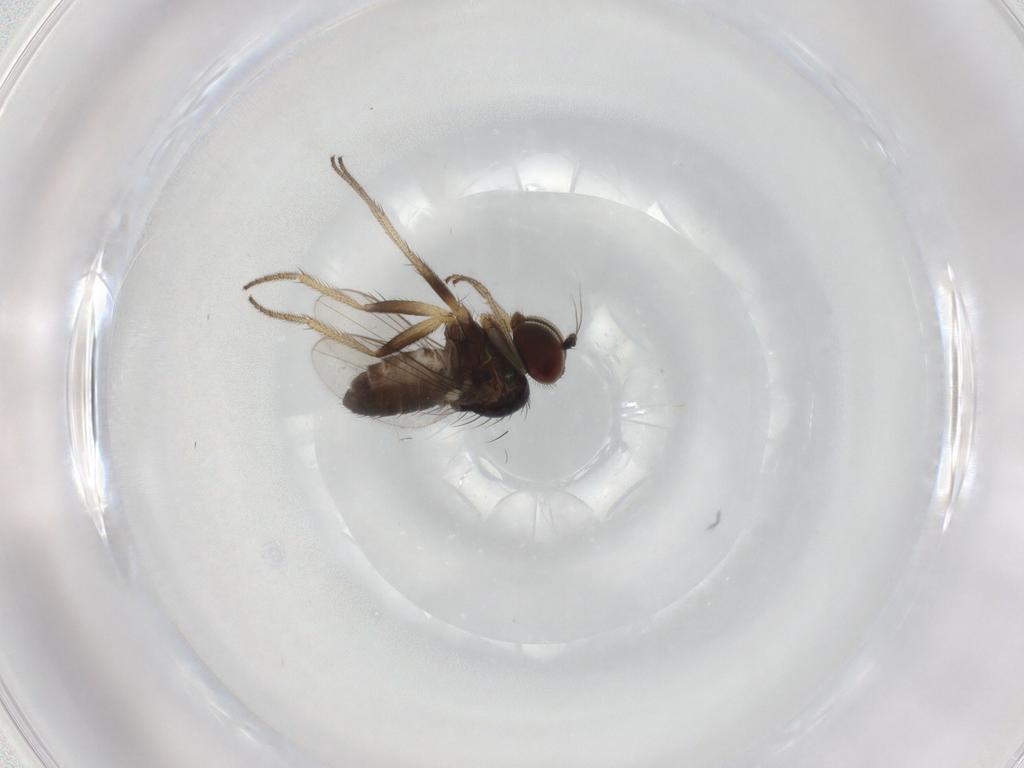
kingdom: Animalia
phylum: Arthropoda
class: Insecta
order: Diptera
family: Dolichopodidae
